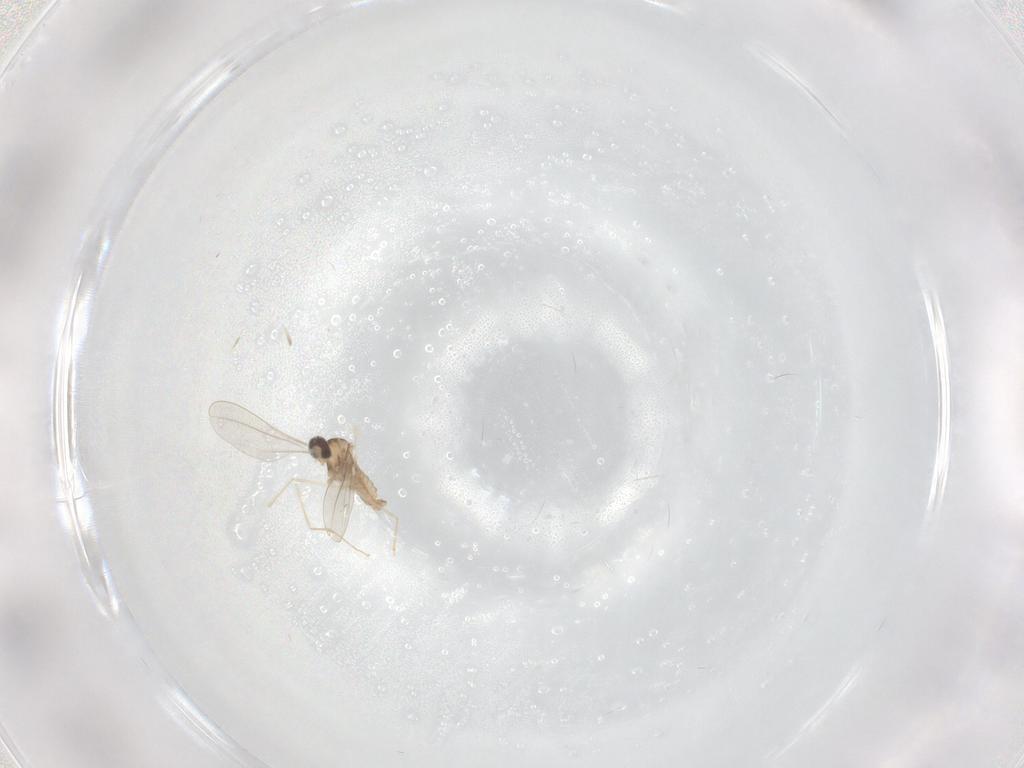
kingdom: Animalia
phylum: Arthropoda
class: Insecta
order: Diptera
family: Cecidomyiidae
